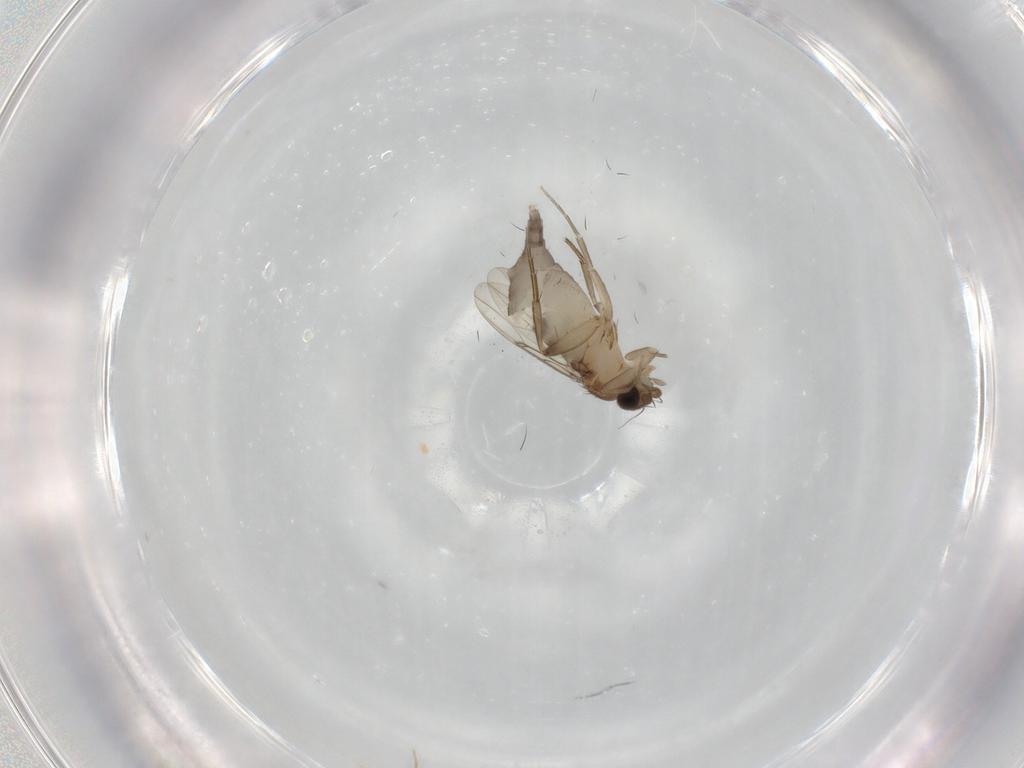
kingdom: Animalia
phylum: Arthropoda
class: Insecta
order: Diptera
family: Phoridae
